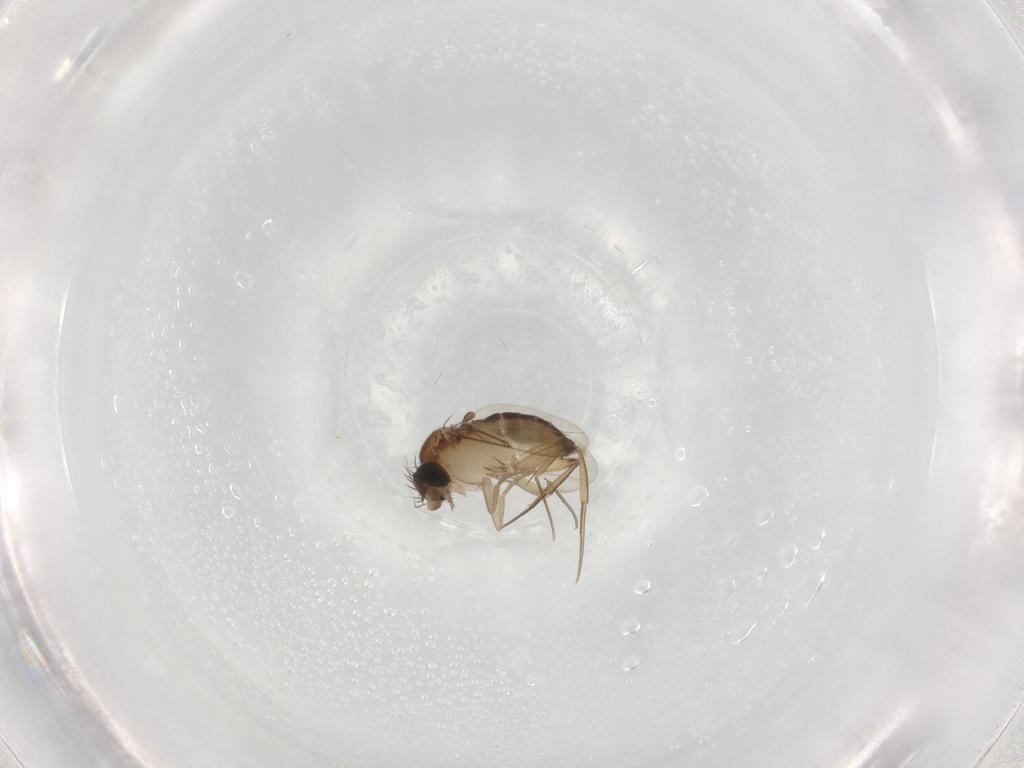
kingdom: Animalia
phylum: Arthropoda
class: Insecta
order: Diptera
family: Phoridae
